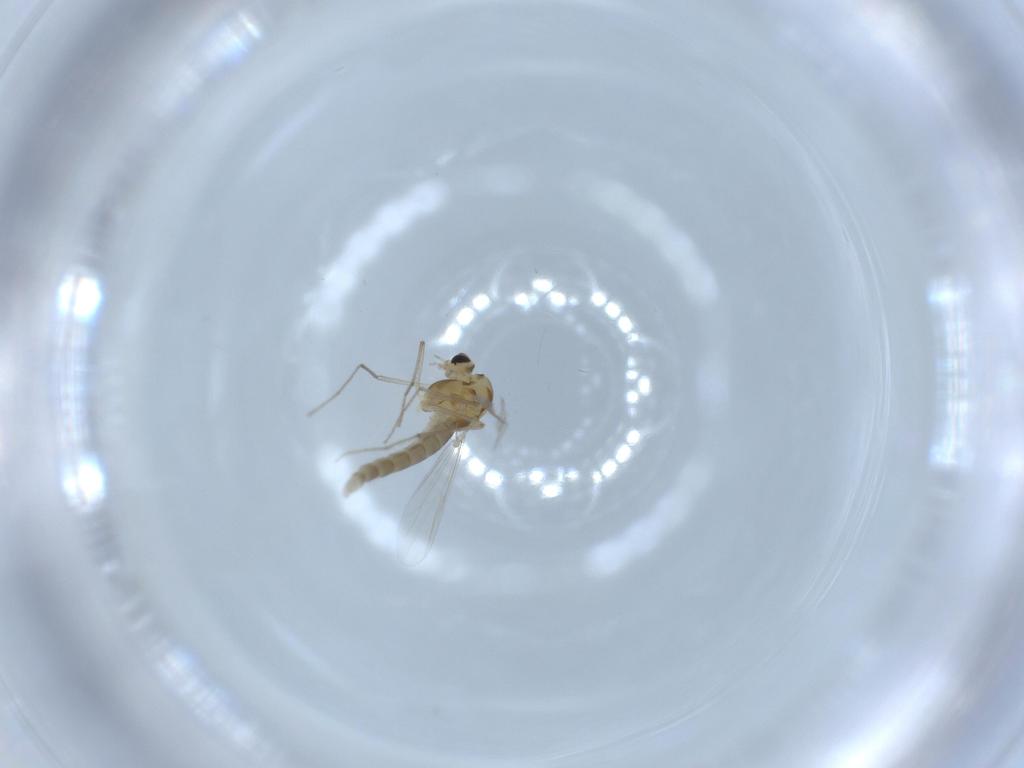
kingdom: Animalia
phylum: Arthropoda
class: Insecta
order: Diptera
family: Chironomidae
